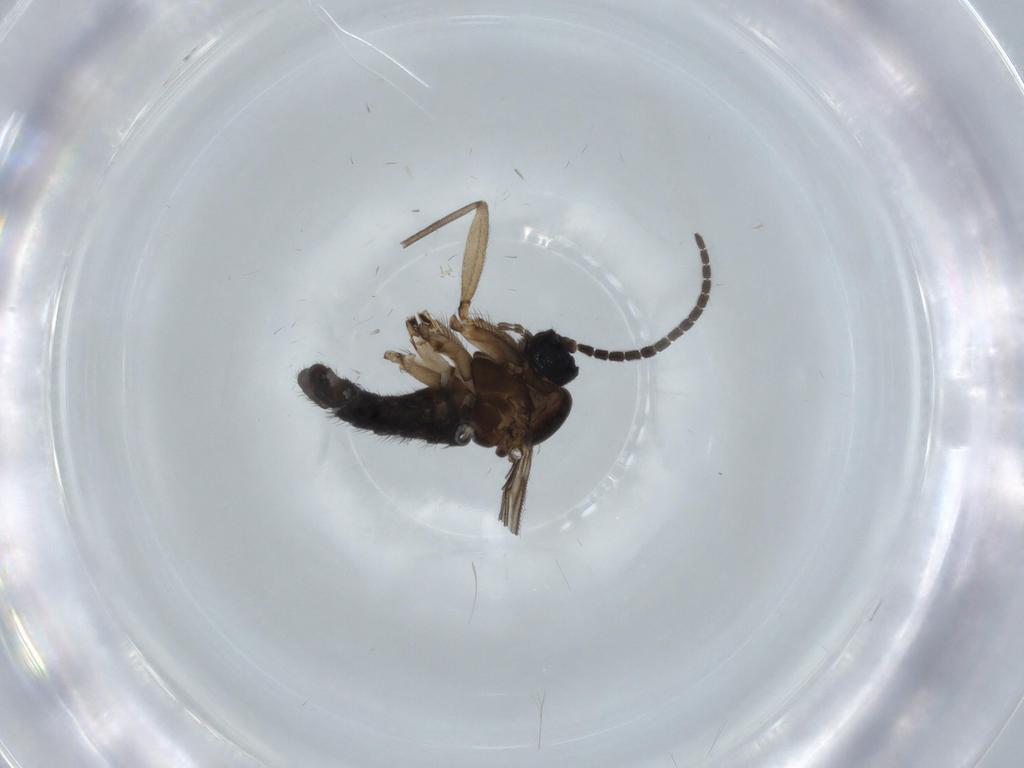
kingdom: Animalia
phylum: Arthropoda
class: Insecta
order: Diptera
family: Sciaridae
